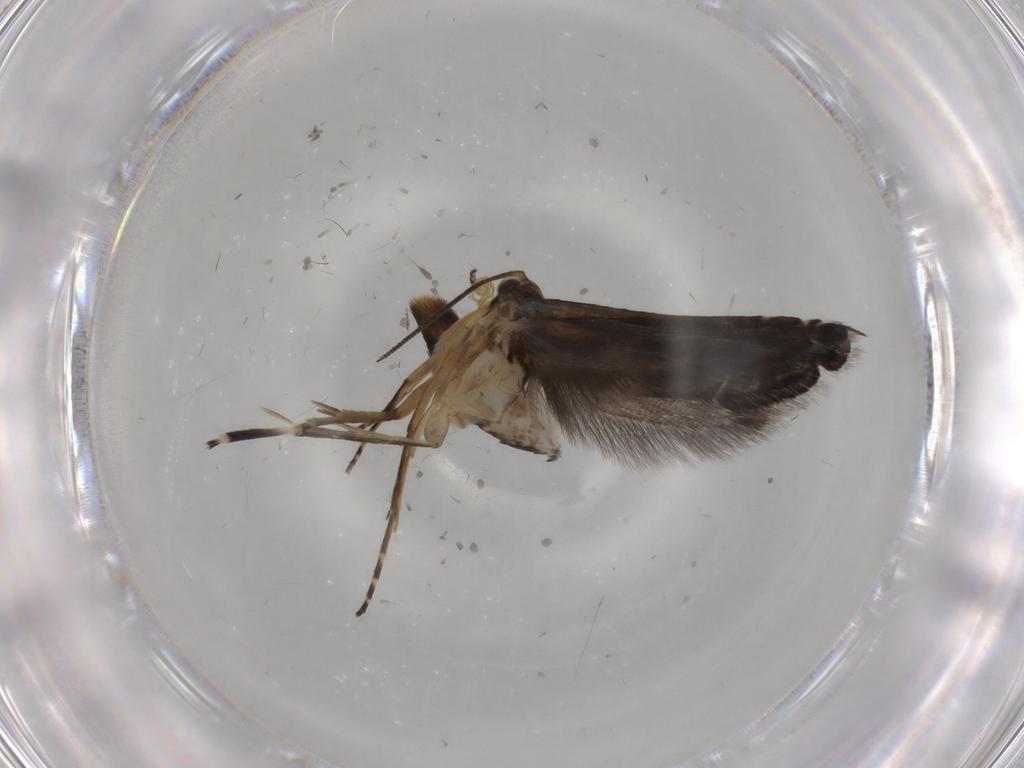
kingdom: Animalia
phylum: Arthropoda
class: Insecta
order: Lepidoptera
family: Glyphipterigidae
